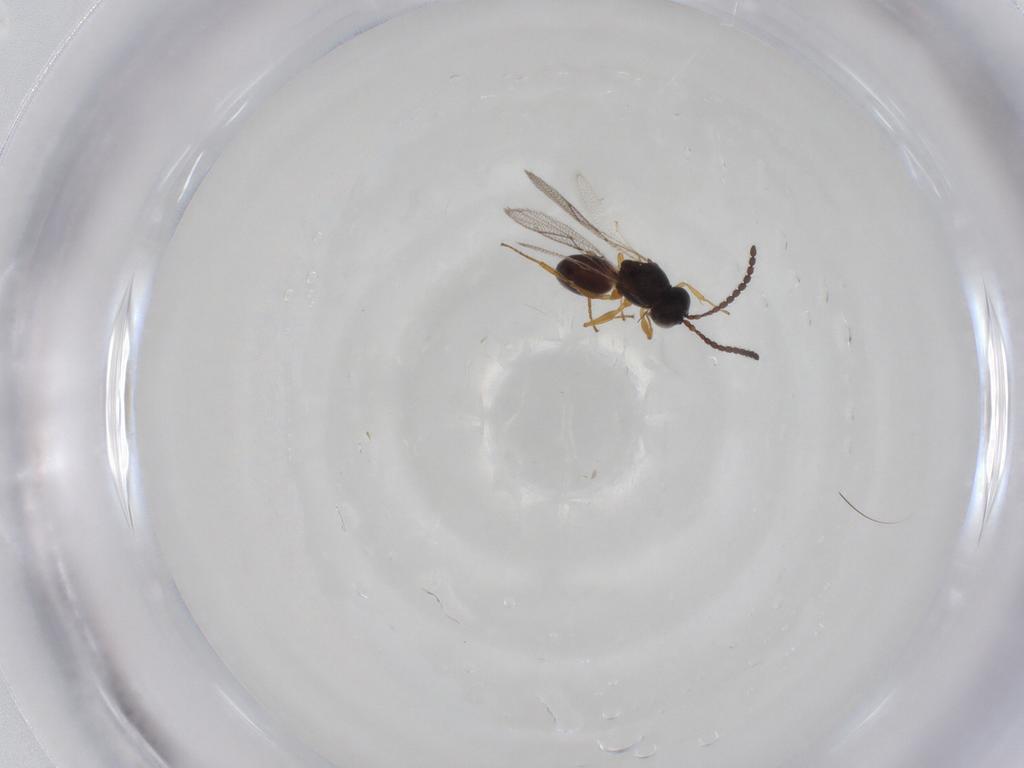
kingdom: Animalia
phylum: Arthropoda
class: Insecta
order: Hymenoptera
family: Figitidae
